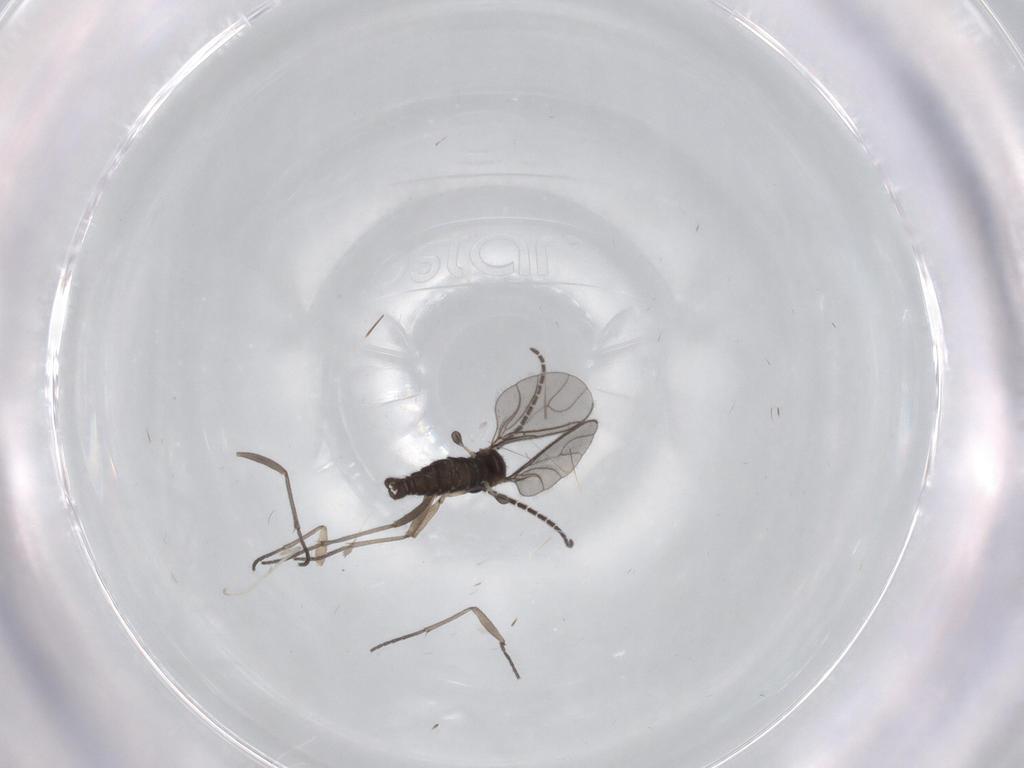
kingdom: Animalia
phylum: Arthropoda
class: Insecta
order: Diptera
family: Sciaridae
